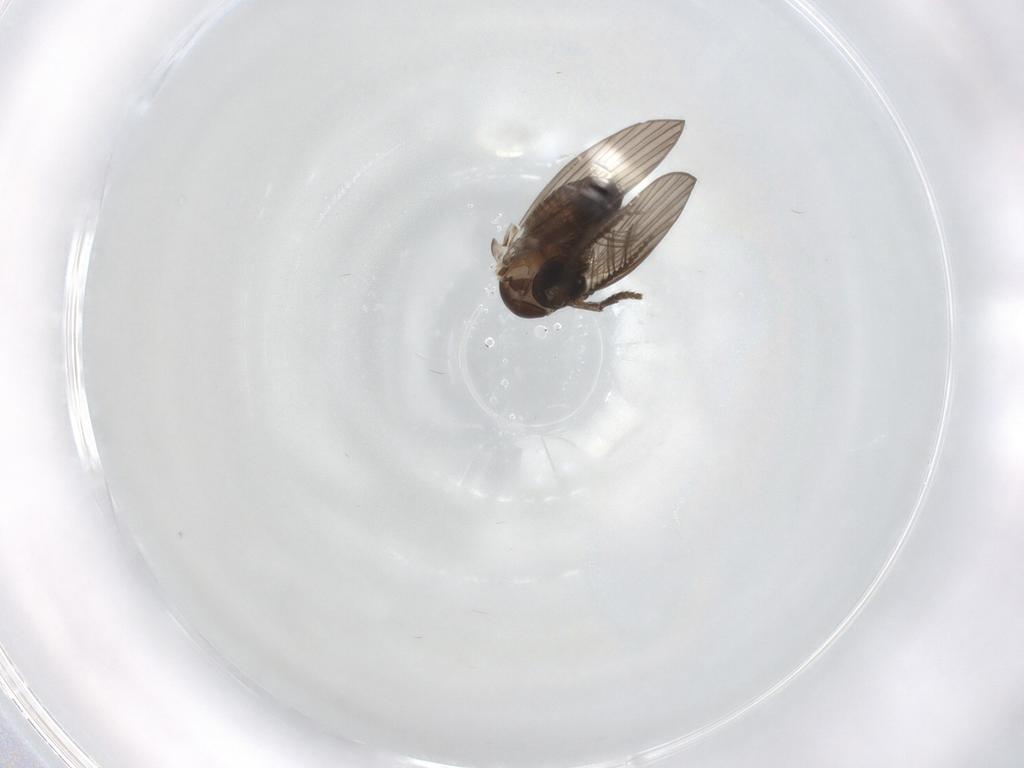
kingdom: Animalia
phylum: Arthropoda
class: Insecta
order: Diptera
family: Psychodidae
